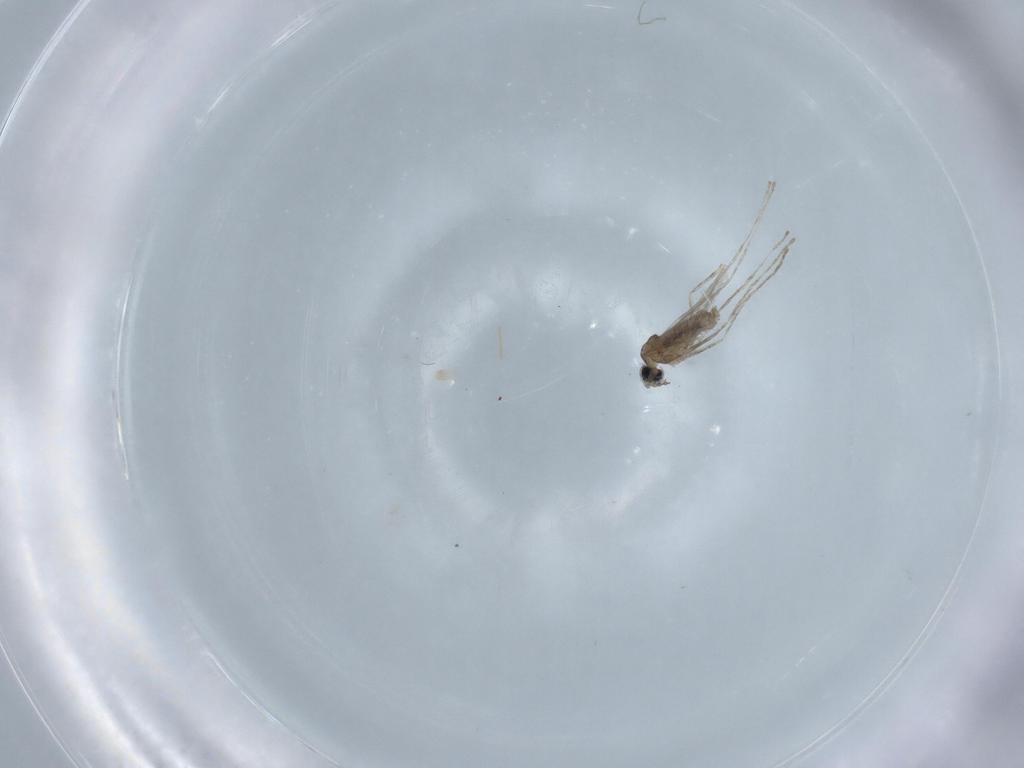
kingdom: Animalia
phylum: Arthropoda
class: Insecta
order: Diptera
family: Cecidomyiidae
